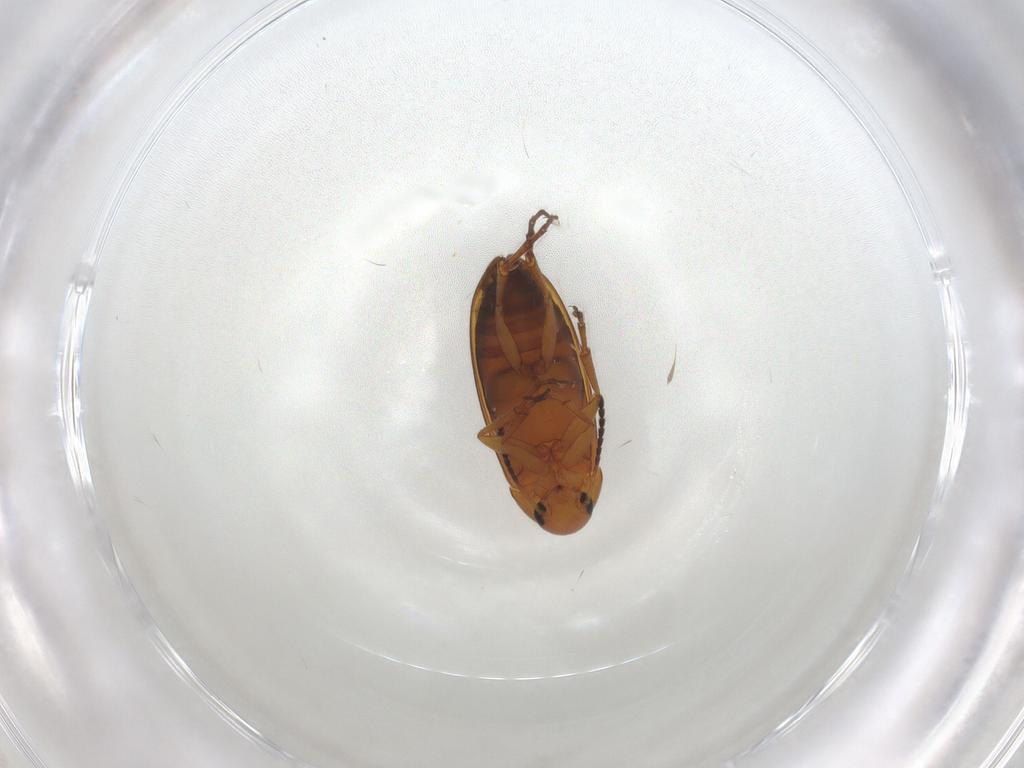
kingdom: Animalia
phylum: Arthropoda
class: Insecta
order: Coleoptera
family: Scraptiidae
